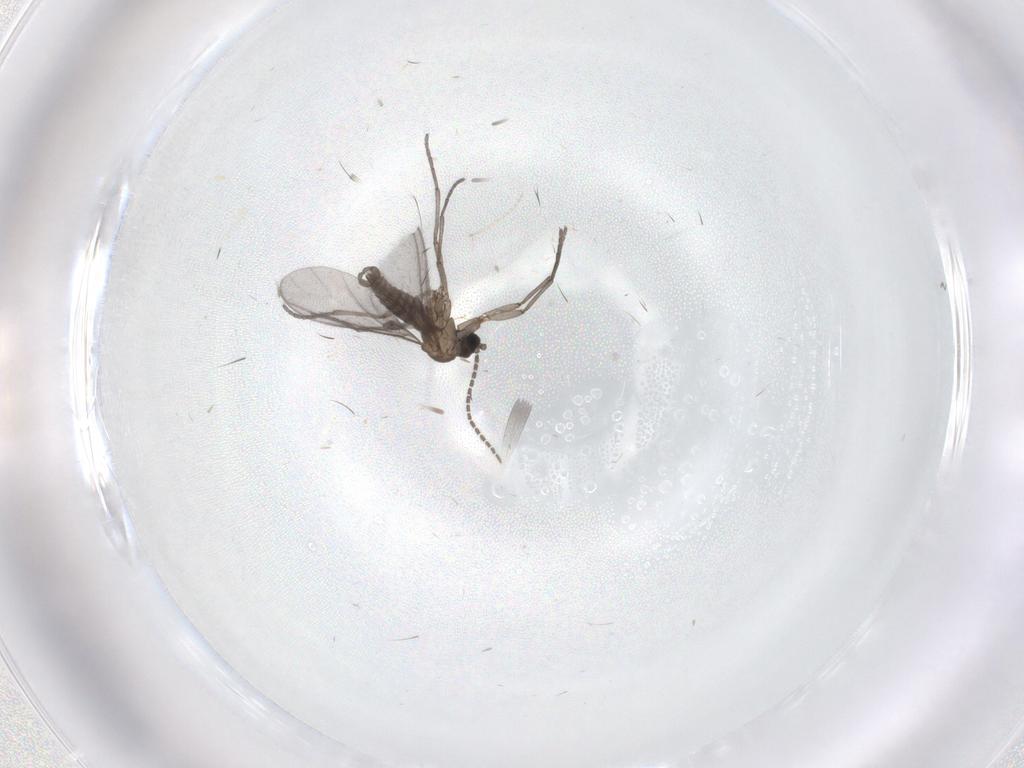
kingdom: Animalia
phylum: Arthropoda
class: Insecta
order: Diptera
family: Sciaridae
